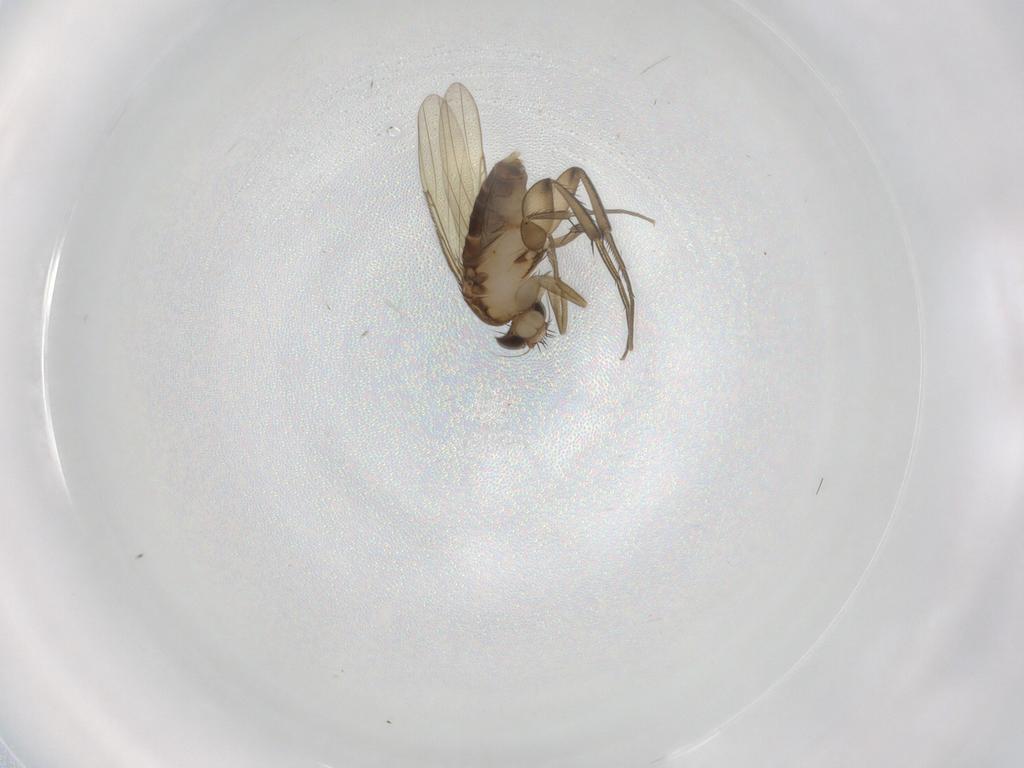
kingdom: Animalia
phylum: Arthropoda
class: Insecta
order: Diptera
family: Phoridae
